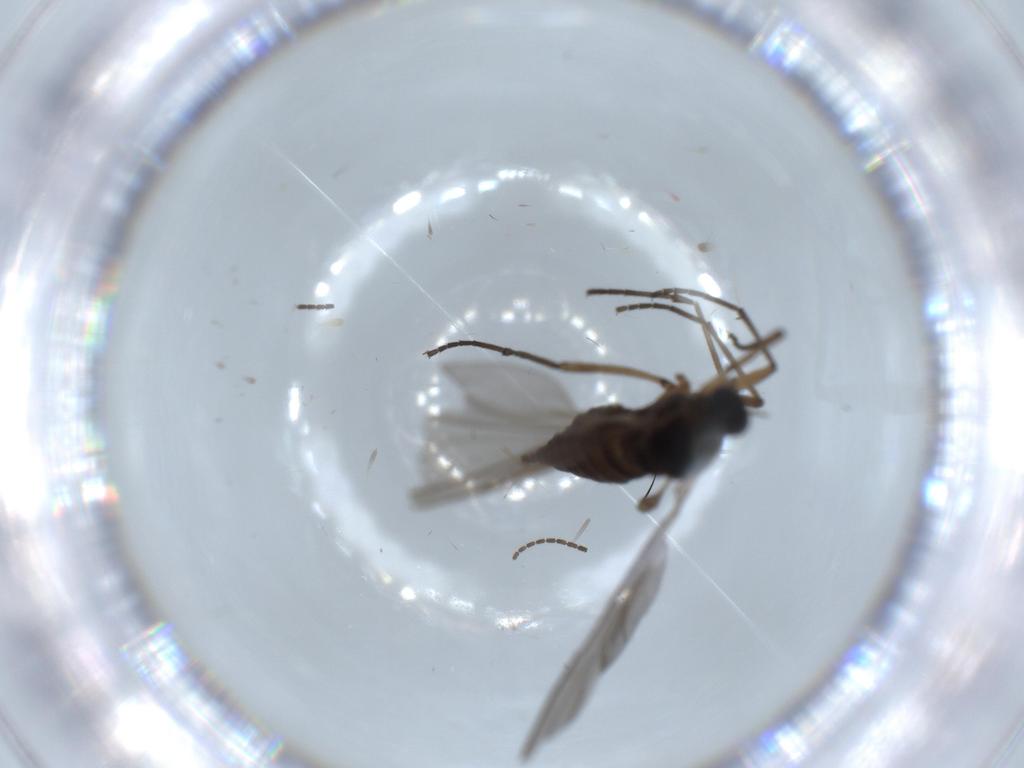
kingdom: Animalia
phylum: Arthropoda
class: Insecta
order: Diptera
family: Sciaridae
